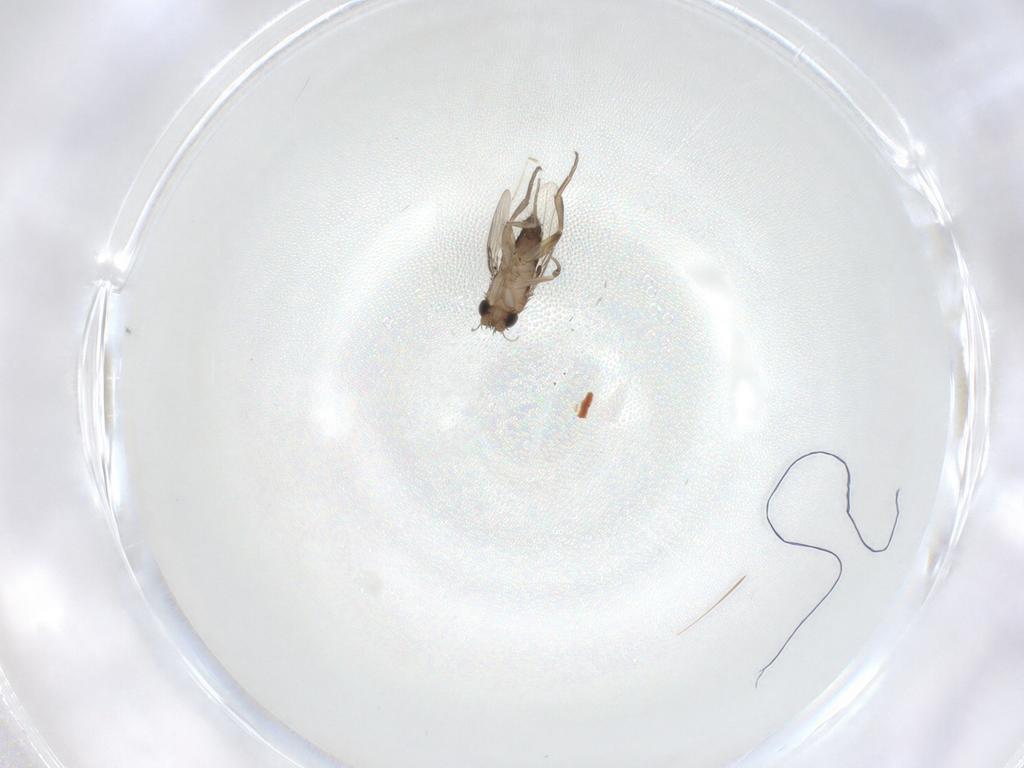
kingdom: Animalia
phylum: Arthropoda
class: Insecta
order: Diptera
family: Phoridae
